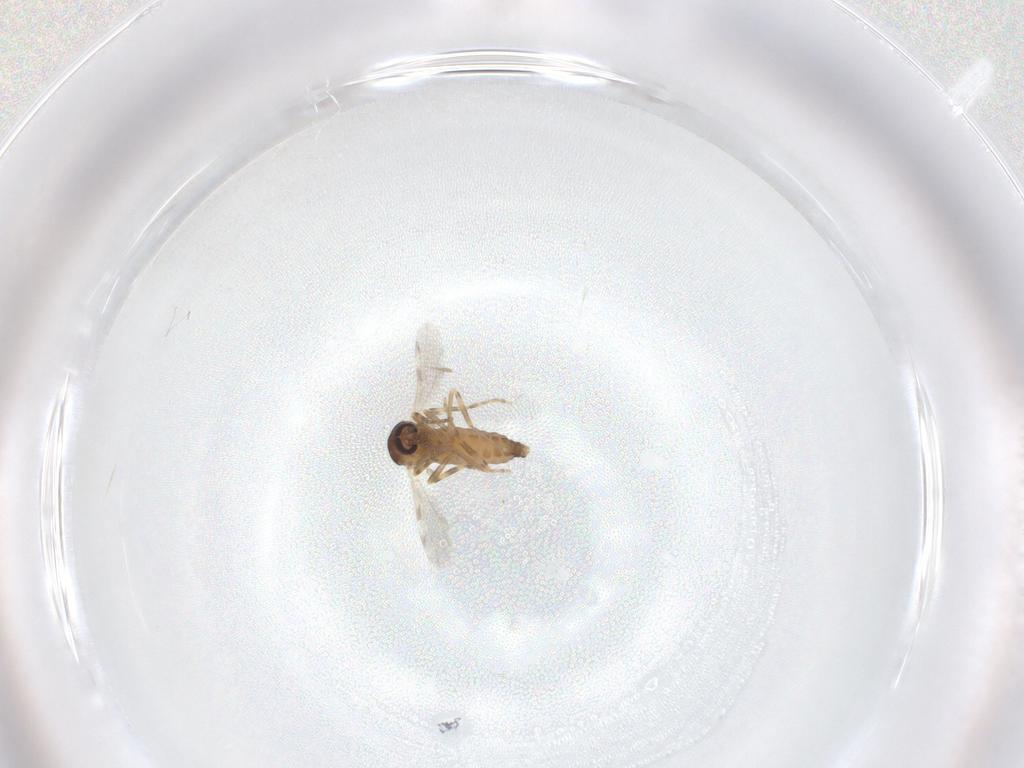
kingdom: Animalia
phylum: Arthropoda
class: Insecta
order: Diptera
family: Ceratopogonidae
